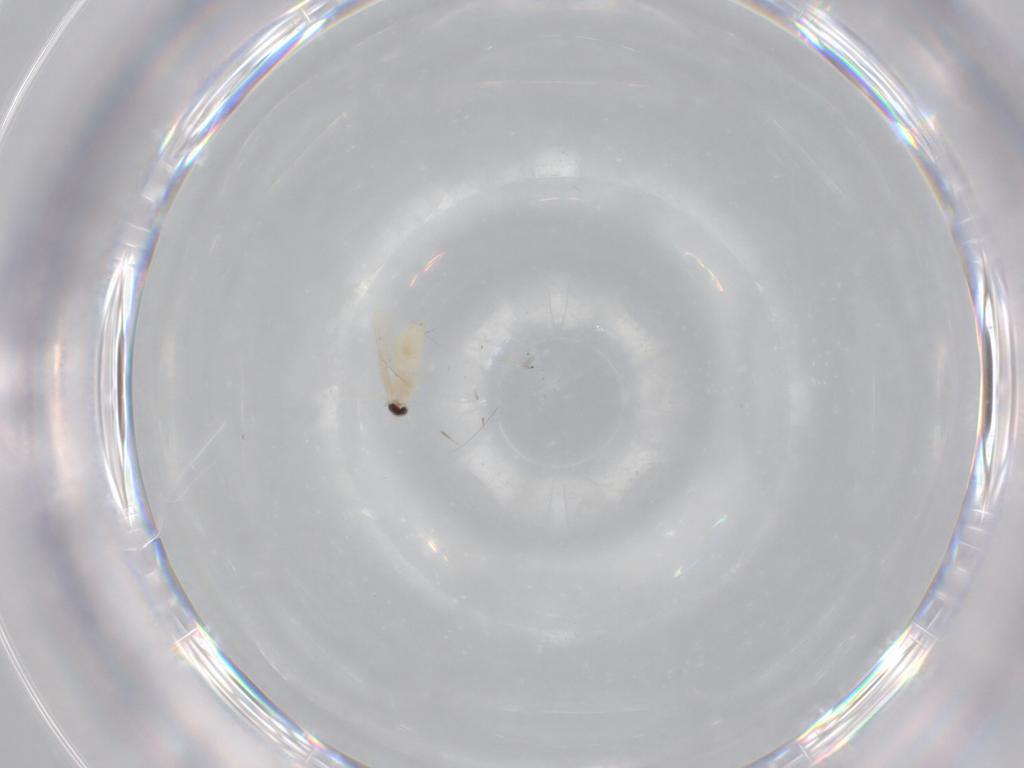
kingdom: Animalia
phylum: Arthropoda
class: Insecta
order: Diptera
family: Cecidomyiidae
